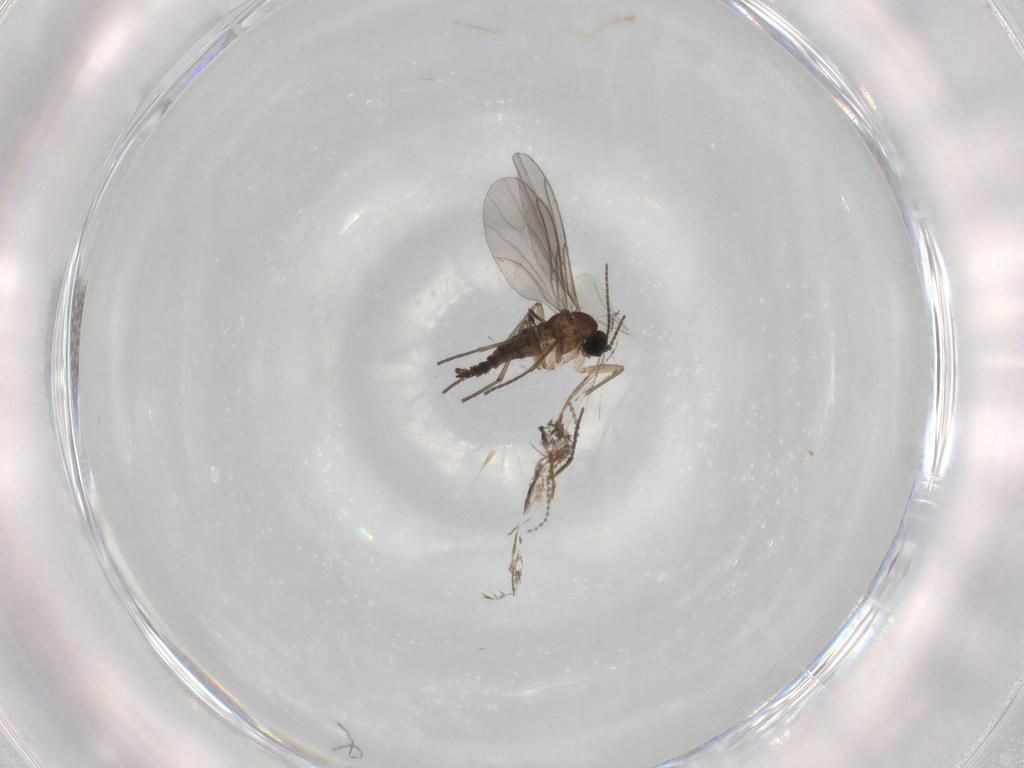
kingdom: Animalia
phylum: Arthropoda
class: Insecta
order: Diptera
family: Sciaridae
